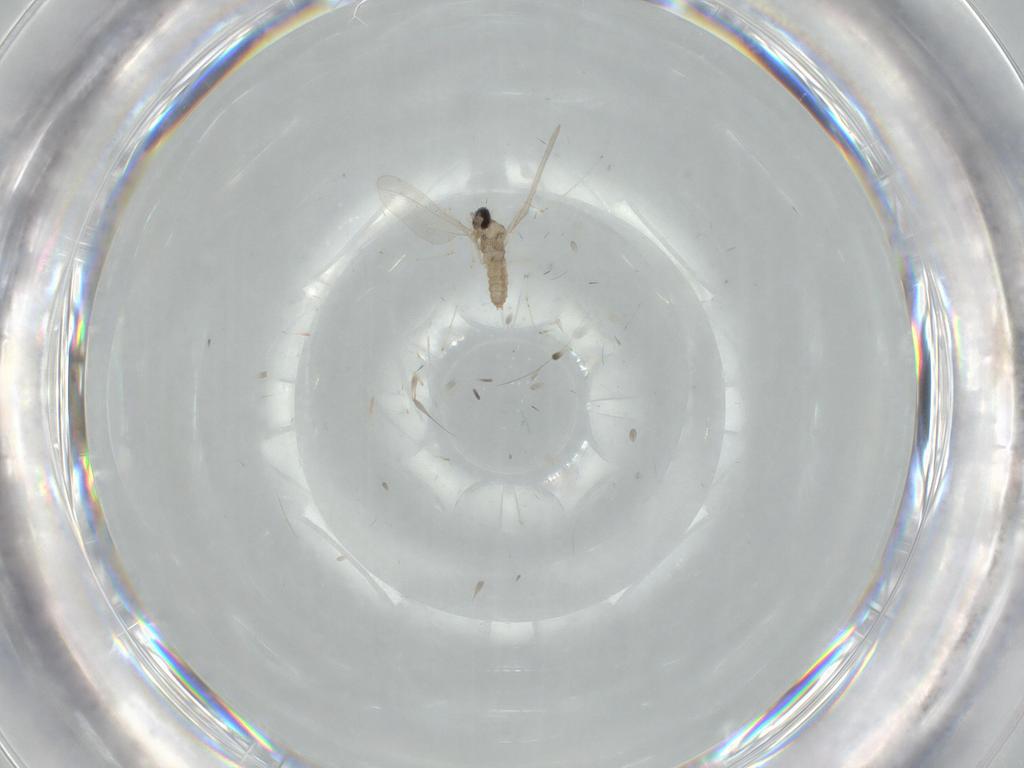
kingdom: Animalia
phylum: Arthropoda
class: Insecta
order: Diptera
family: Cecidomyiidae
